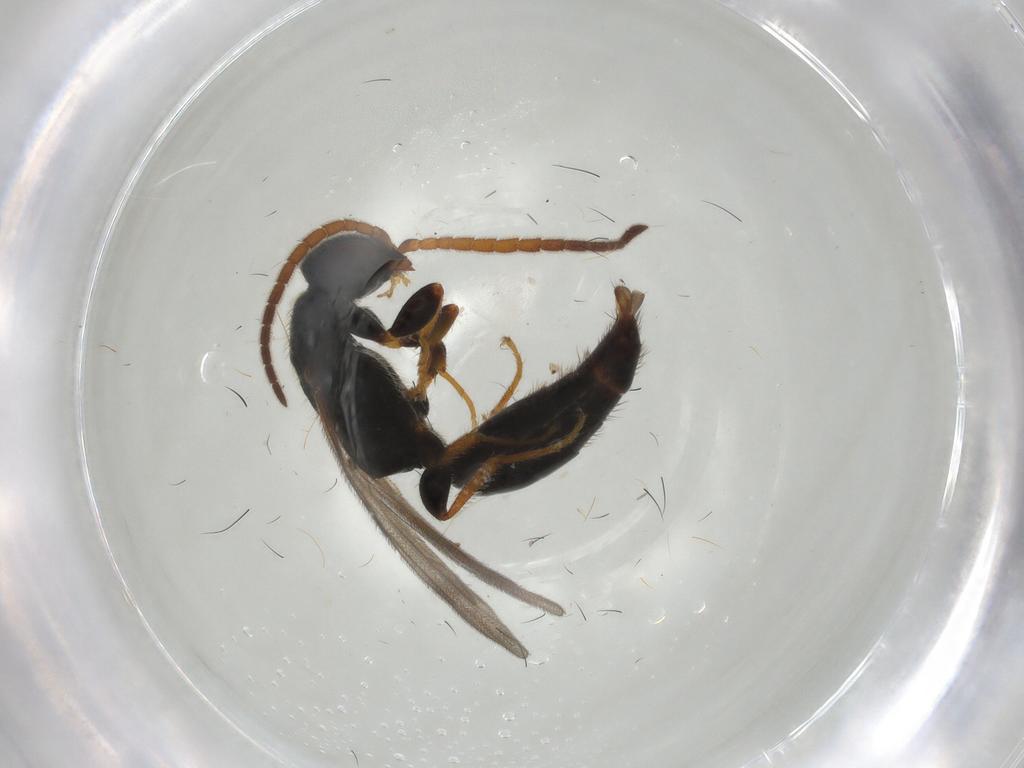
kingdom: Animalia
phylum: Arthropoda
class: Insecta
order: Hymenoptera
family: Bethylidae
